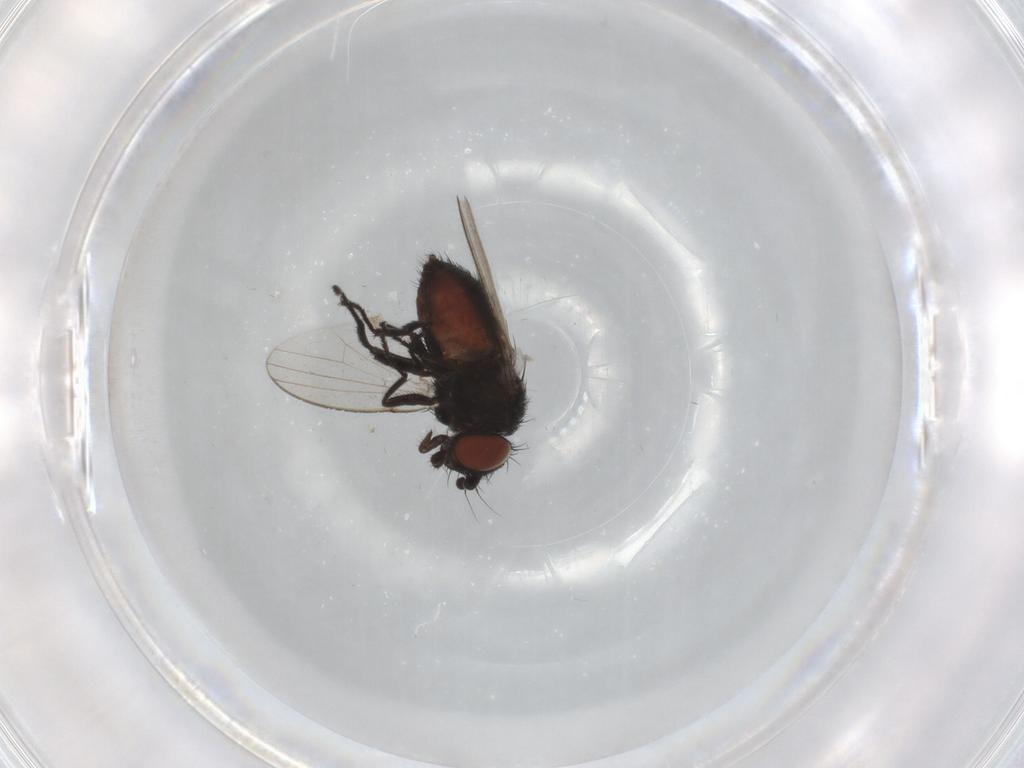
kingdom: Animalia
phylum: Arthropoda
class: Insecta
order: Diptera
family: Milichiidae
